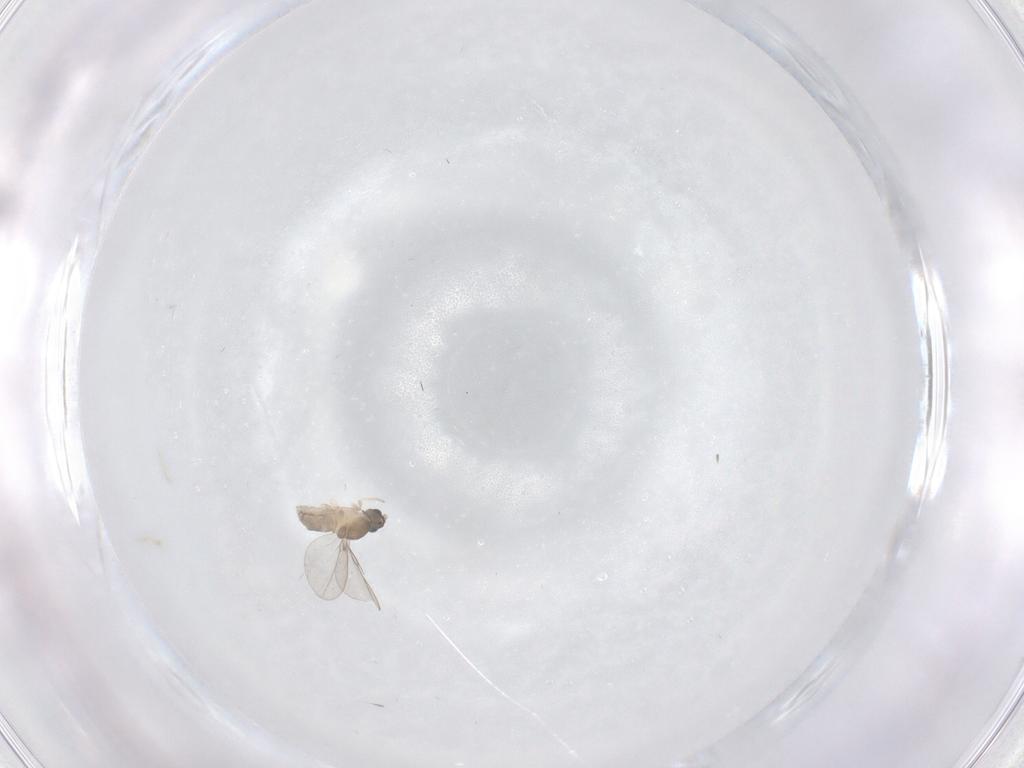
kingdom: Animalia
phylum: Arthropoda
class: Insecta
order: Diptera
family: Cecidomyiidae
